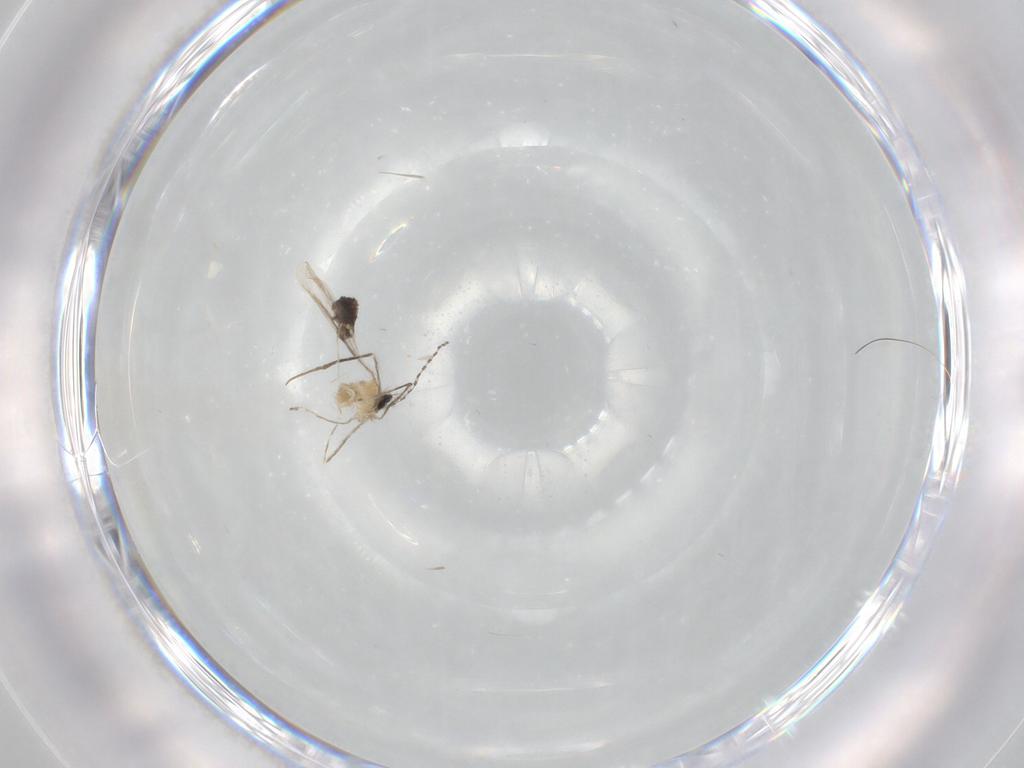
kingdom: Animalia
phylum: Arthropoda
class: Insecta
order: Diptera
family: Cecidomyiidae
